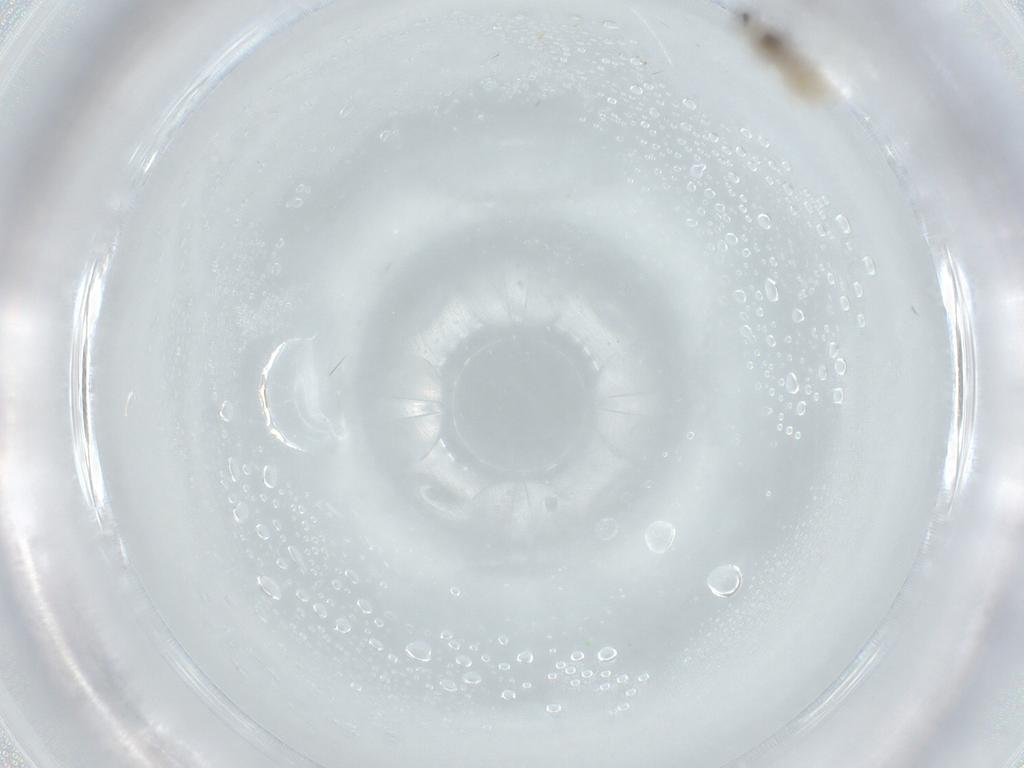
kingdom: Animalia
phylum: Arthropoda
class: Insecta
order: Diptera
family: Cecidomyiidae
